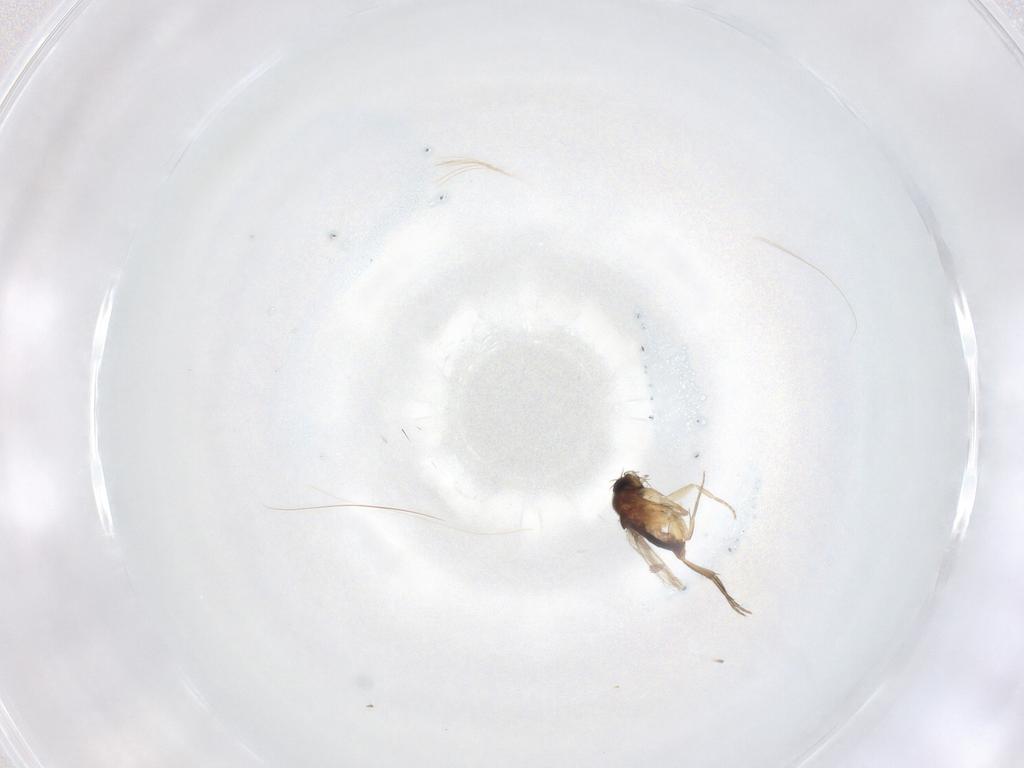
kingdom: Animalia
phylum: Arthropoda
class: Insecta
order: Diptera
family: Phoridae
